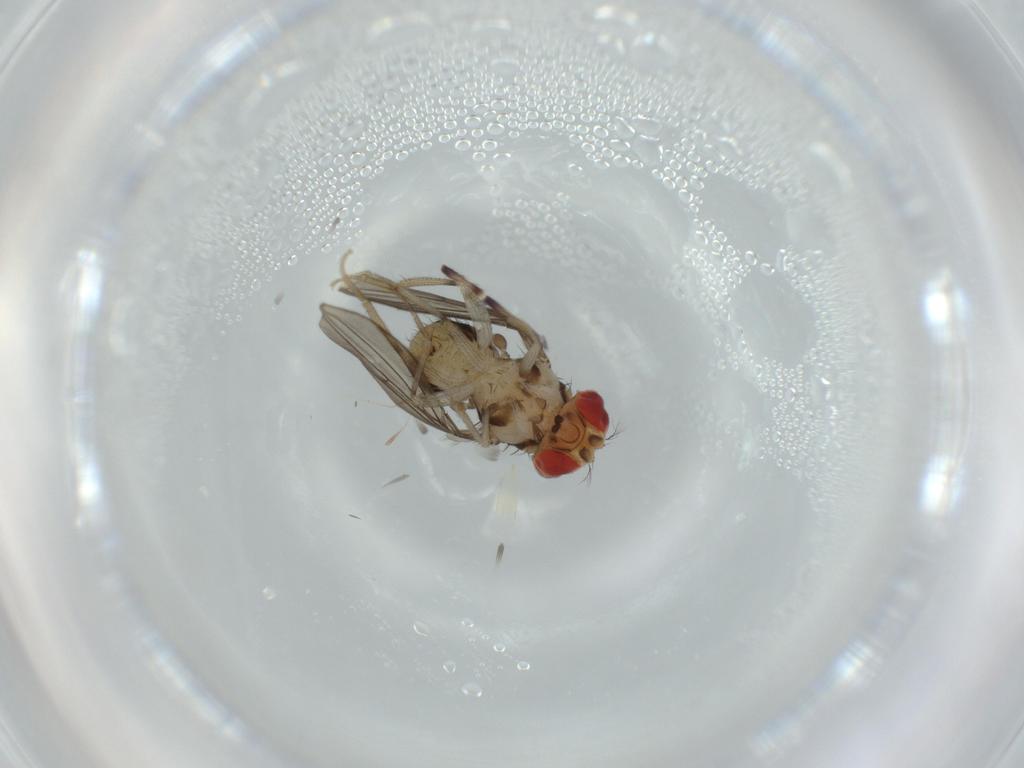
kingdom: Animalia
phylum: Arthropoda
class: Insecta
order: Diptera
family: Drosophilidae
